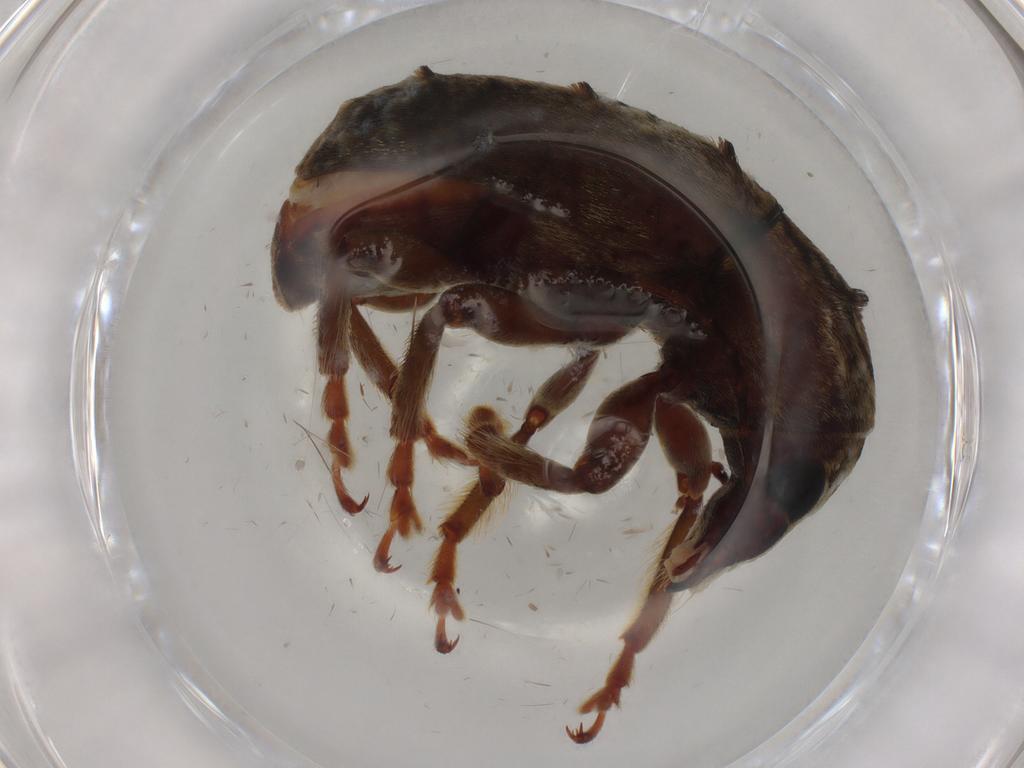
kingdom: Animalia
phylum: Arthropoda
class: Insecta
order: Coleoptera
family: Anthribidae
